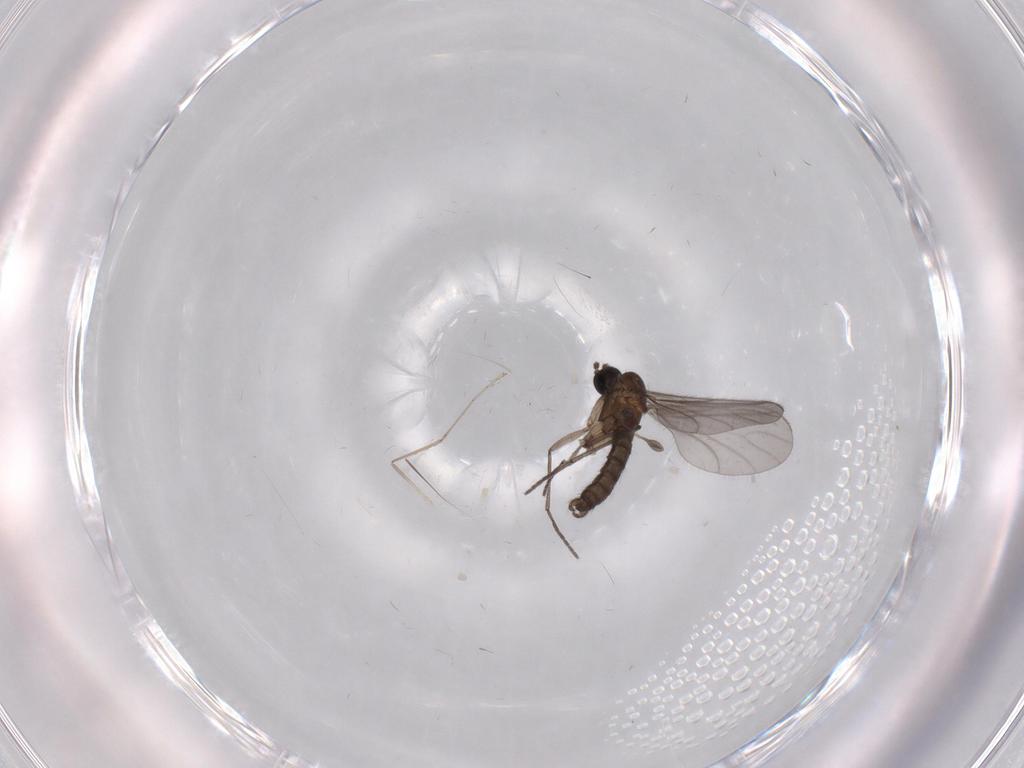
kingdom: Animalia
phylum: Arthropoda
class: Insecta
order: Diptera
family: Cecidomyiidae
